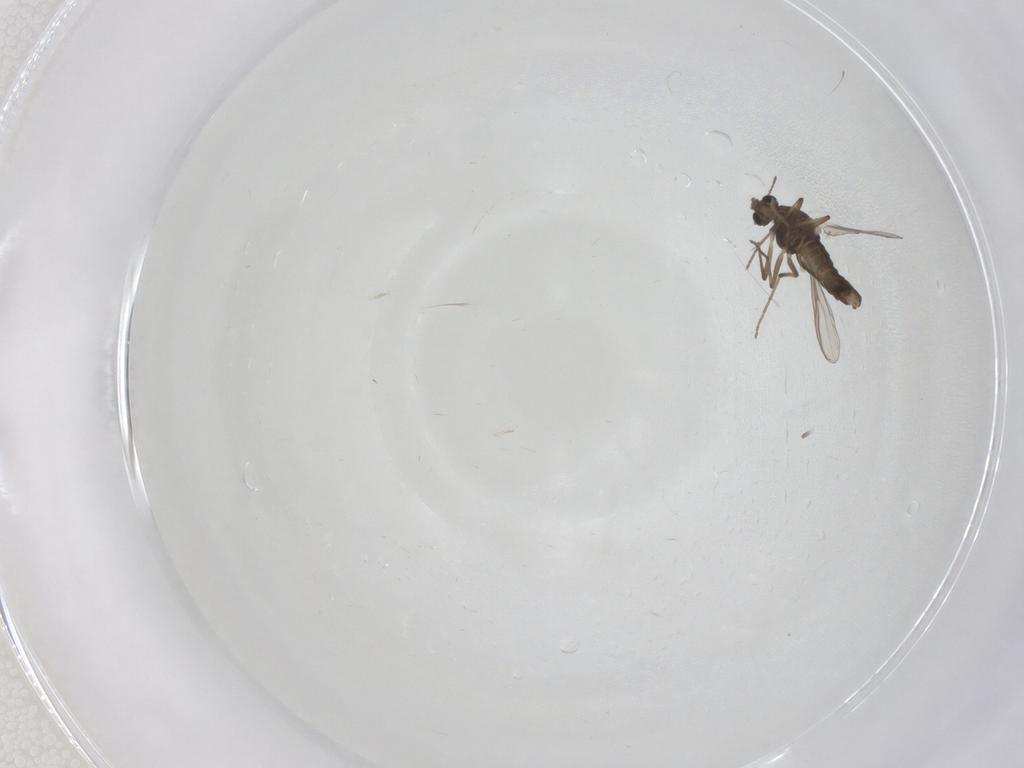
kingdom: Animalia
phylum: Arthropoda
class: Insecta
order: Diptera
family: Chironomidae
